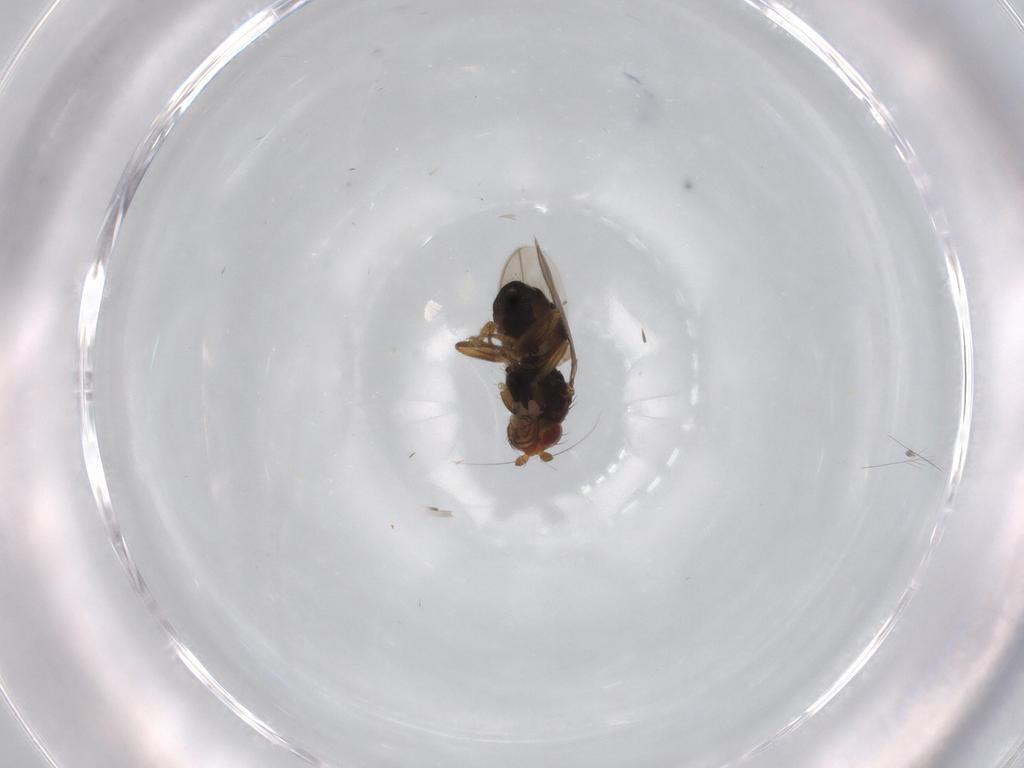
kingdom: Animalia
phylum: Arthropoda
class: Insecta
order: Diptera
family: Sphaeroceridae
